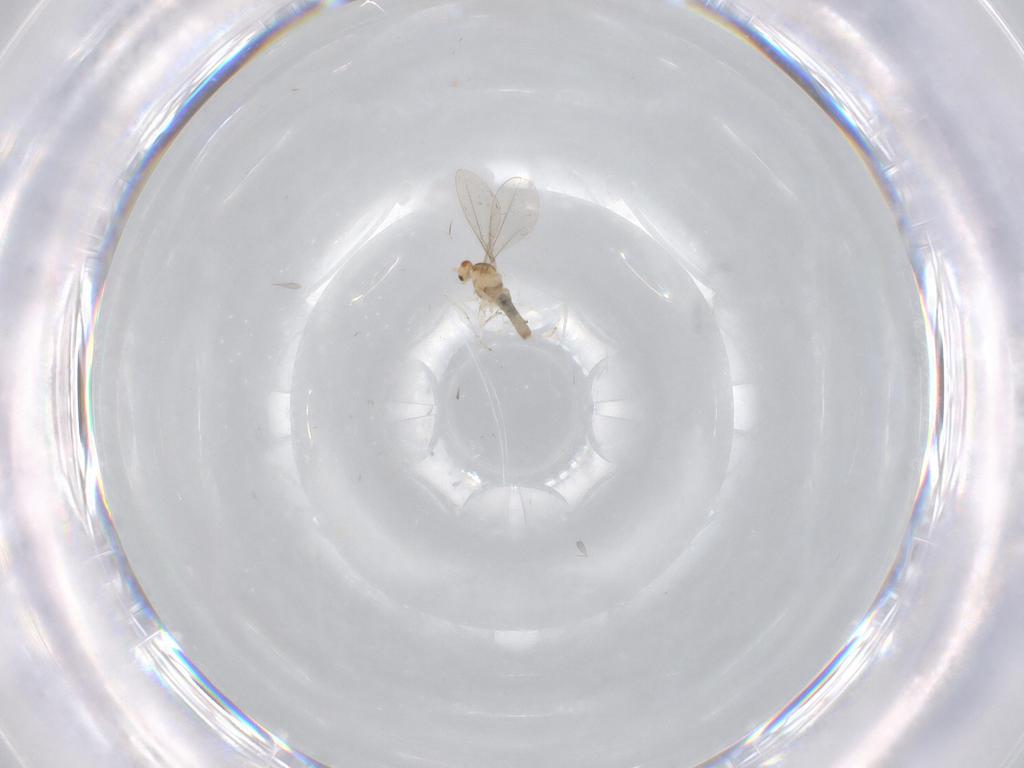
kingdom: Animalia
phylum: Arthropoda
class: Insecta
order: Diptera
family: Cecidomyiidae
